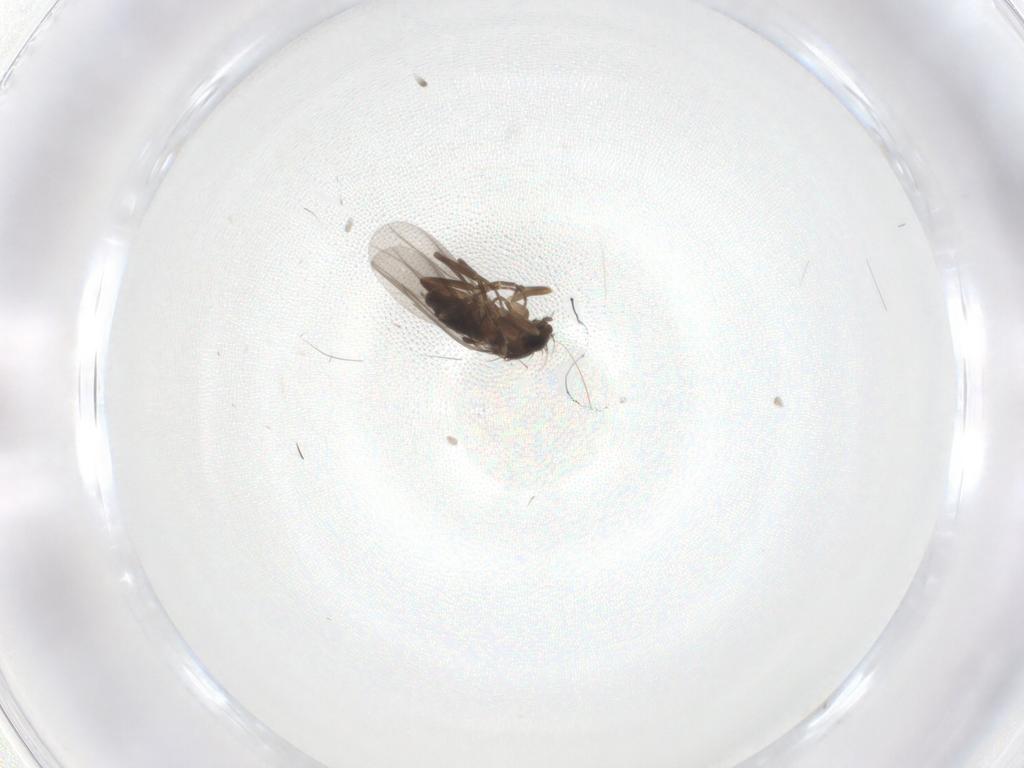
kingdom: Animalia
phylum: Arthropoda
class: Insecta
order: Diptera
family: Phoridae
